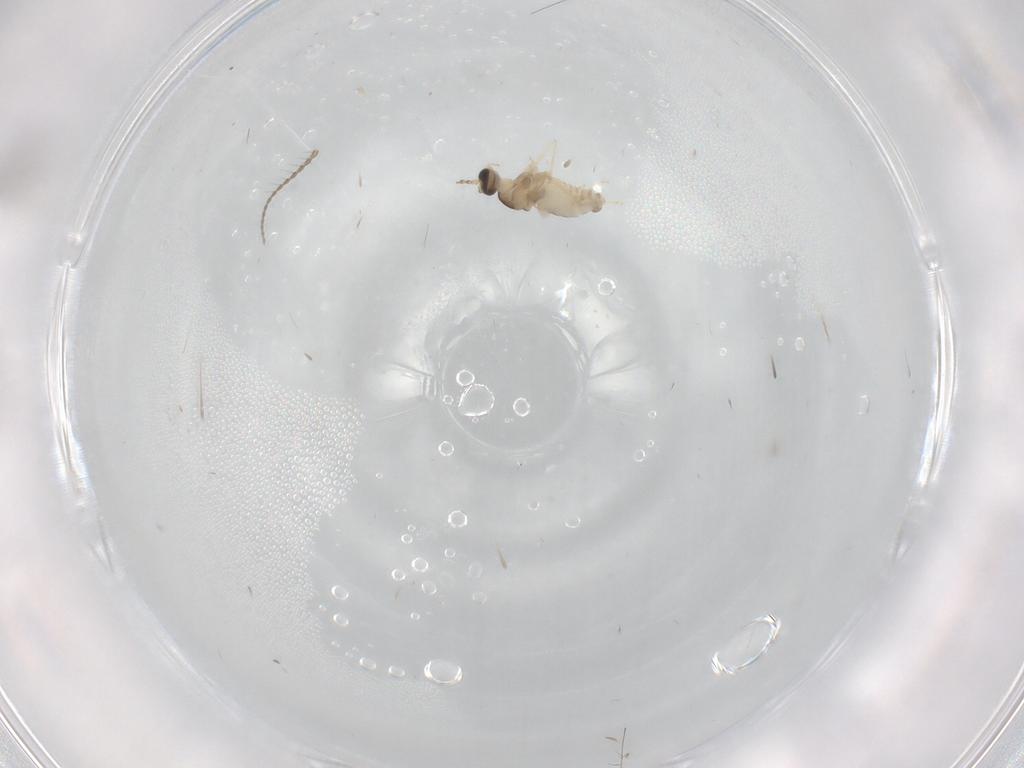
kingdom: Animalia
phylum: Arthropoda
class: Insecta
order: Diptera
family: Cecidomyiidae
